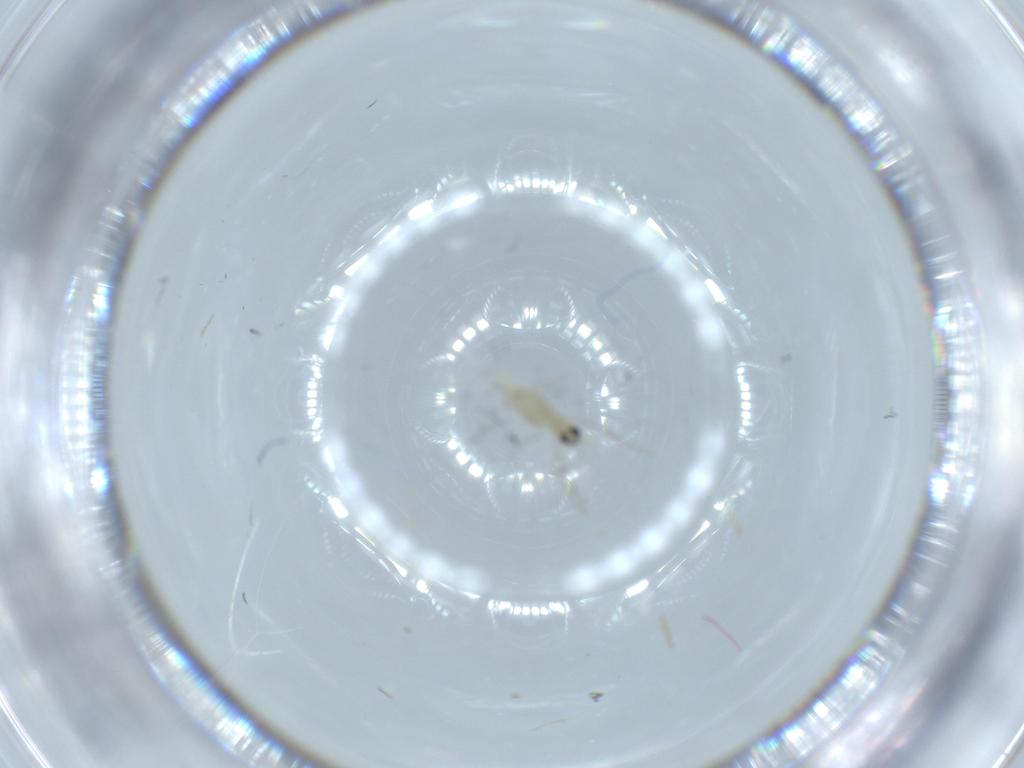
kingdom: Animalia
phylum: Arthropoda
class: Insecta
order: Diptera
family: Cecidomyiidae
